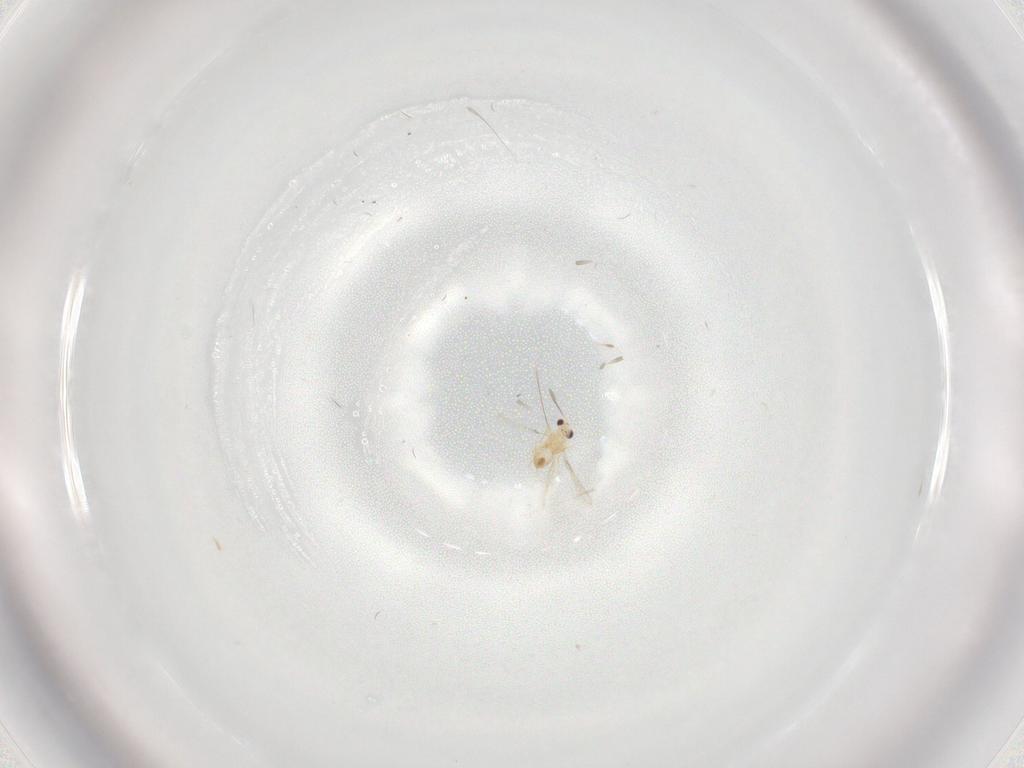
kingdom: Animalia
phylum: Arthropoda
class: Insecta
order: Hymenoptera
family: Mymaridae
